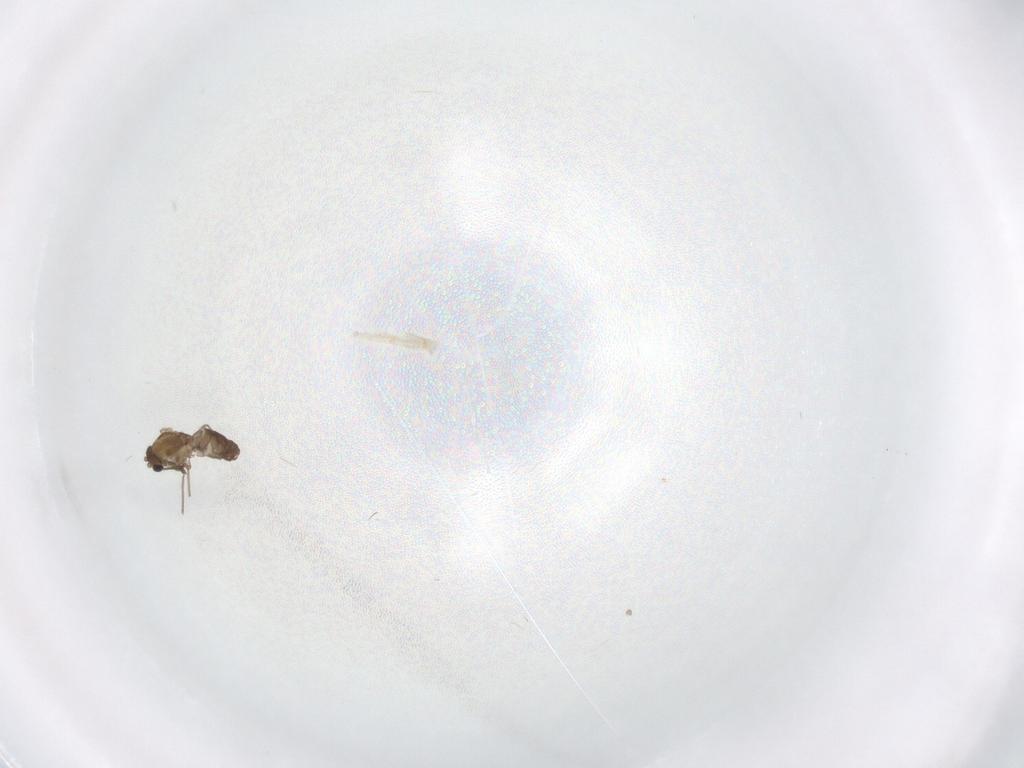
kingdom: Animalia
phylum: Arthropoda
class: Insecta
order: Diptera
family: Chironomidae
